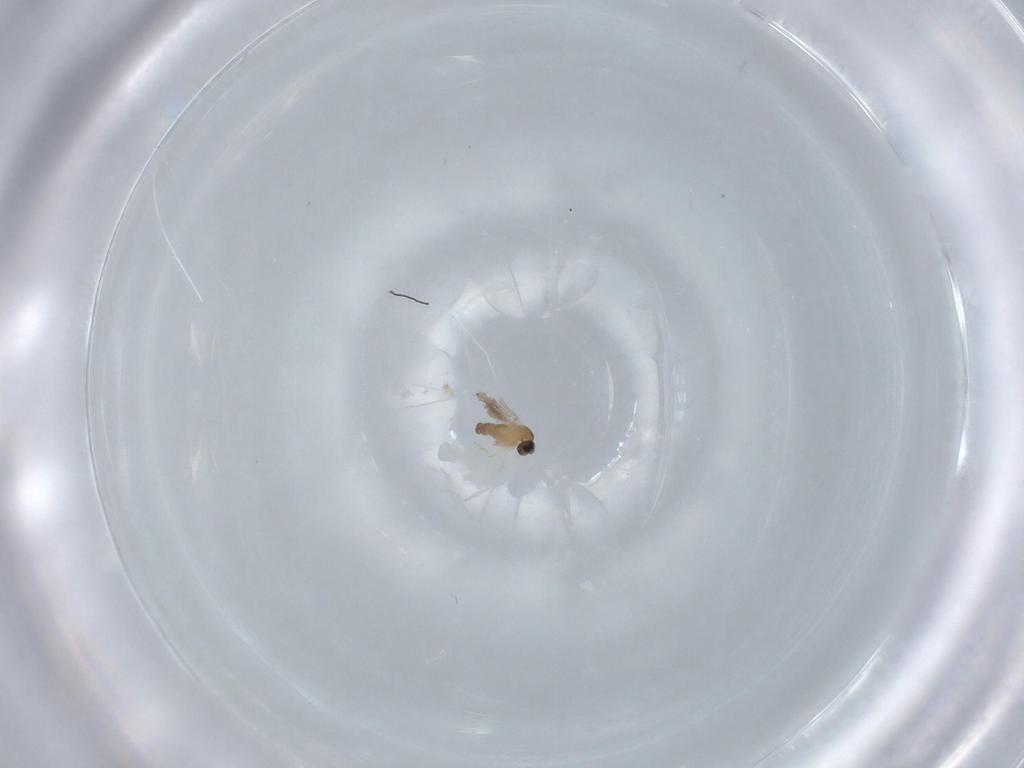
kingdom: Animalia
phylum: Arthropoda
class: Insecta
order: Diptera
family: Cecidomyiidae
